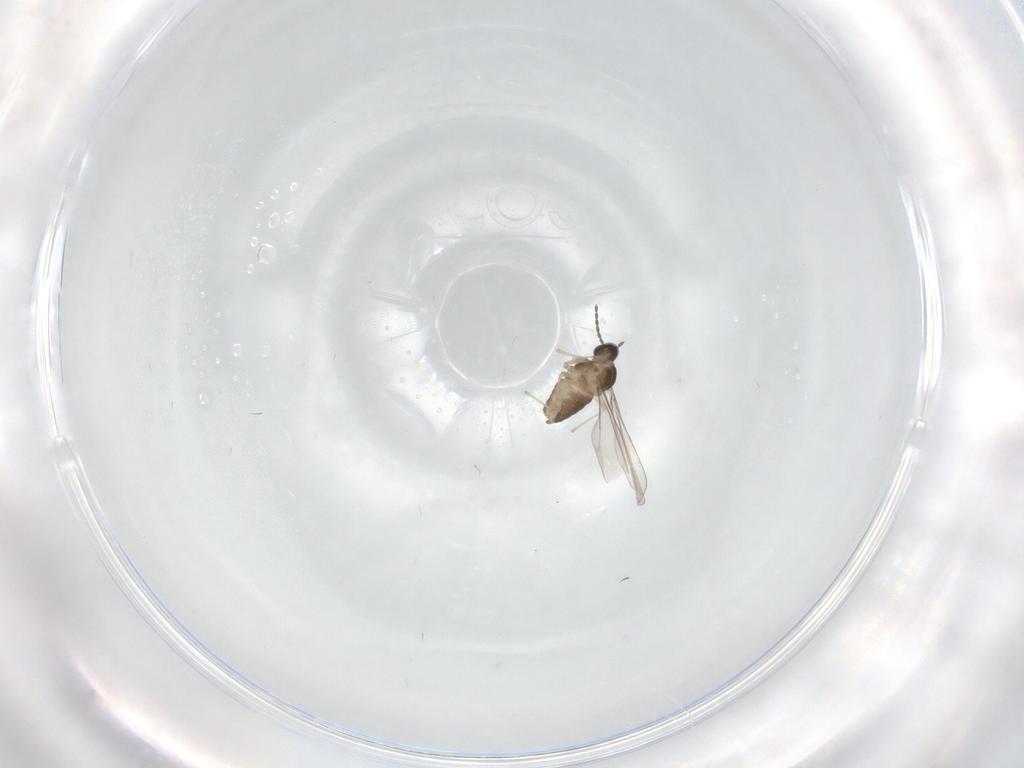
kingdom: Animalia
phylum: Arthropoda
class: Insecta
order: Diptera
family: Cecidomyiidae
